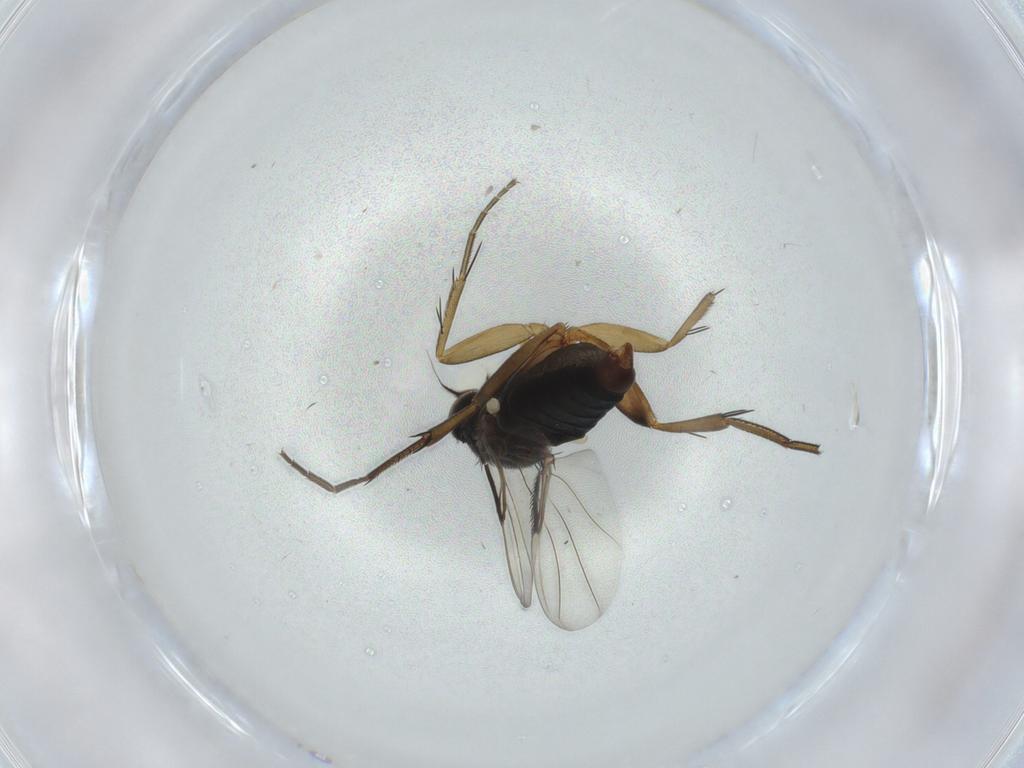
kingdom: Animalia
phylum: Arthropoda
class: Insecta
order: Diptera
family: Phoridae
